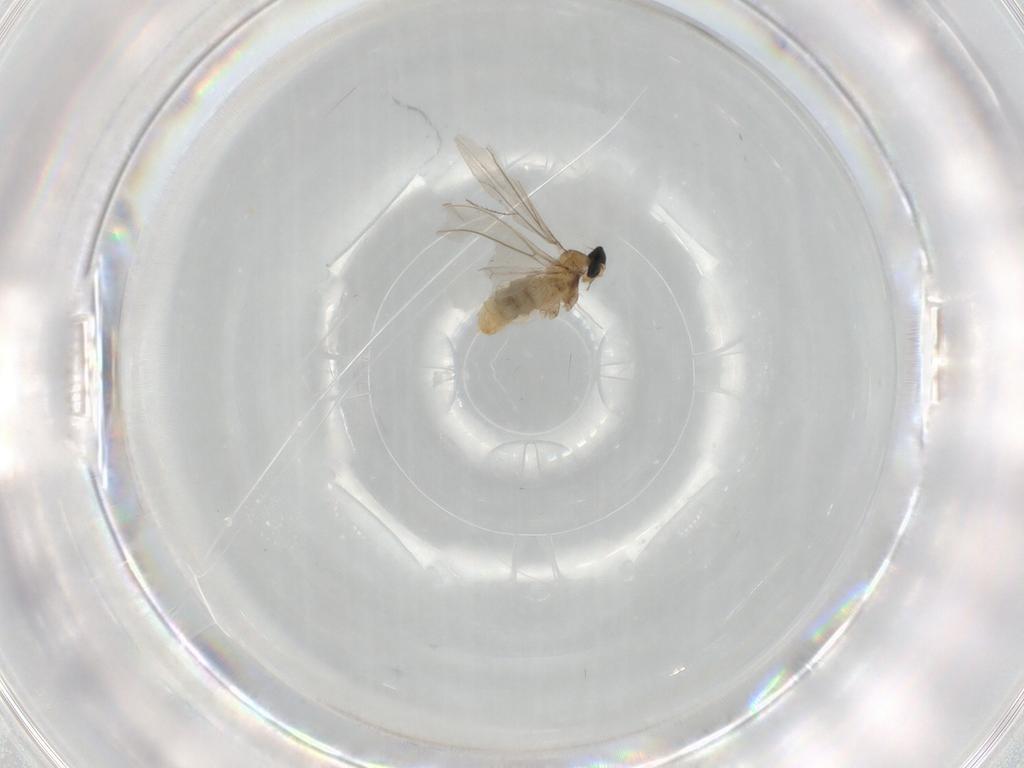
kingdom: Animalia
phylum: Arthropoda
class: Insecta
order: Diptera
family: Cecidomyiidae
